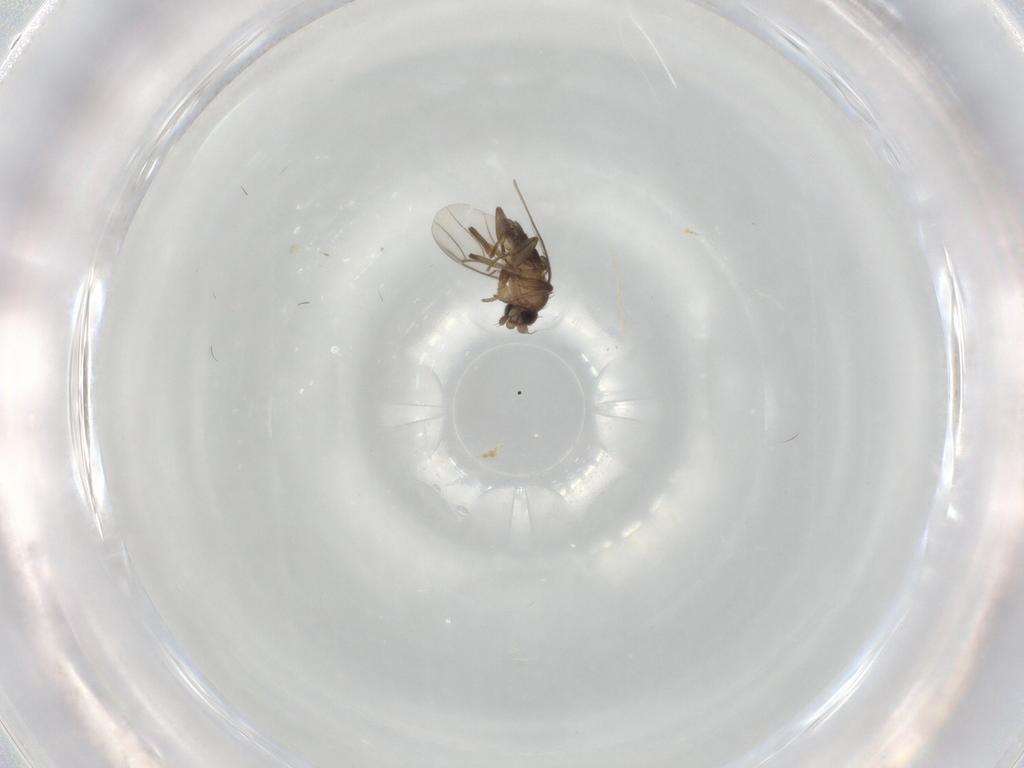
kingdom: Animalia
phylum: Arthropoda
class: Insecta
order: Diptera
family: Phoridae
